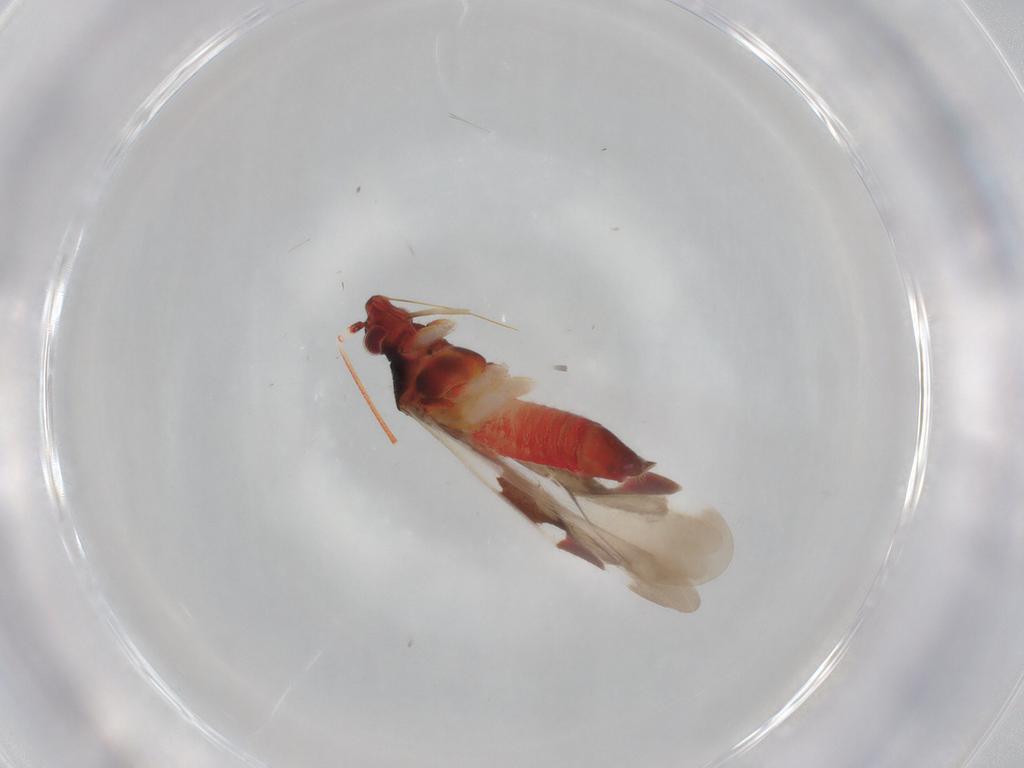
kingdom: Animalia
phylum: Arthropoda
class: Insecta
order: Hemiptera
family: Miridae
